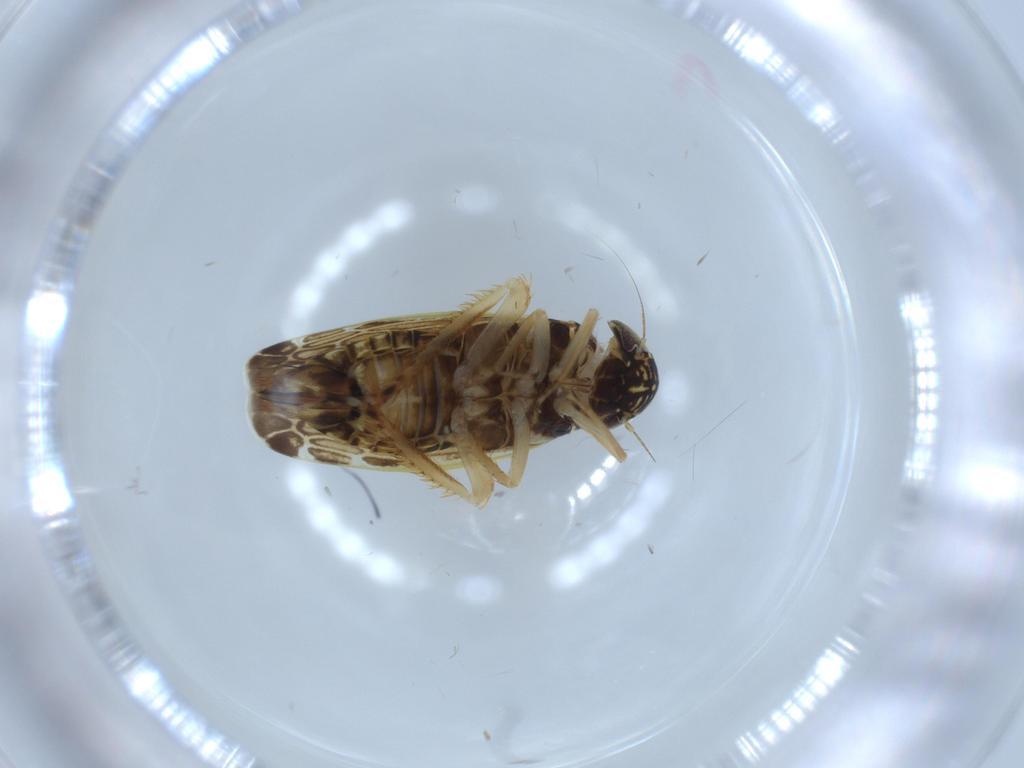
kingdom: Animalia
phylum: Arthropoda
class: Insecta
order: Hemiptera
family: Cicadellidae
